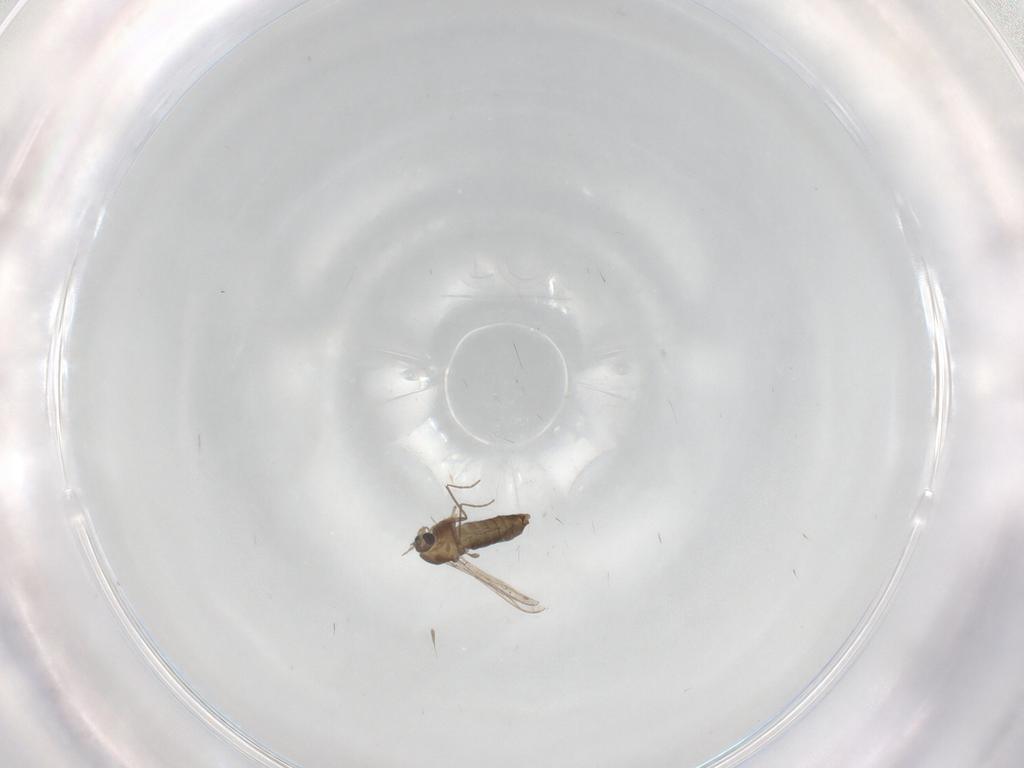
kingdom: Animalia
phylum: Arthropoda
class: Insecta
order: Diptera
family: Chironomidae
